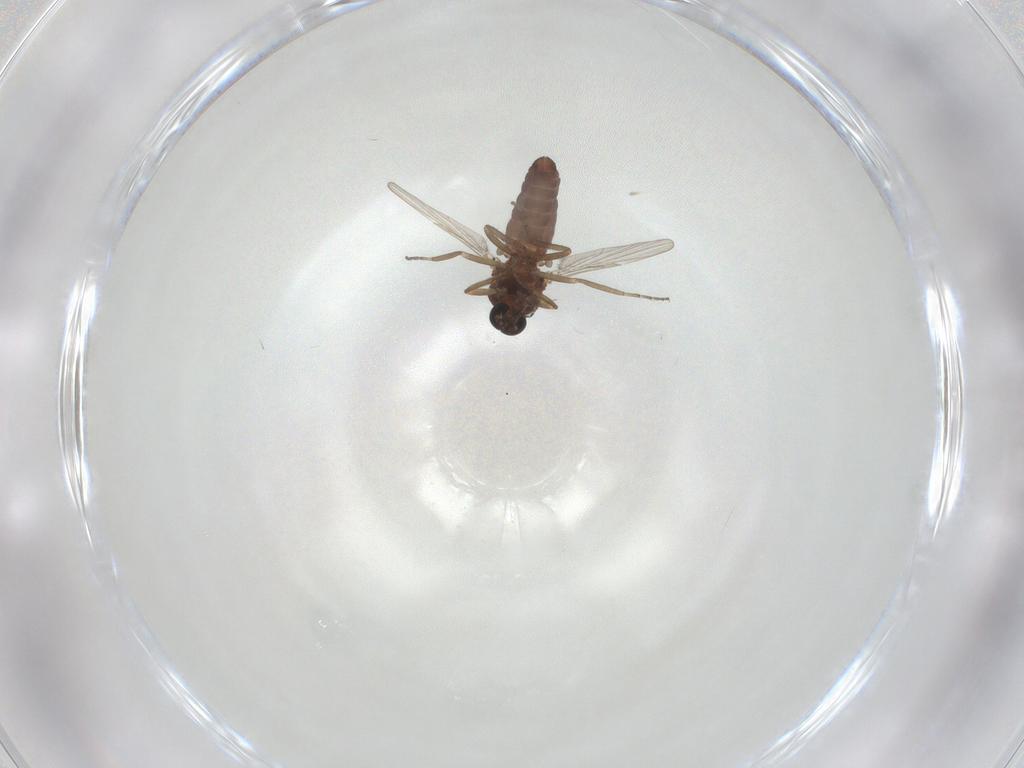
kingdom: Animalia
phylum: Arthropoda
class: Insecta
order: Diptera
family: Ceratopogonidae
